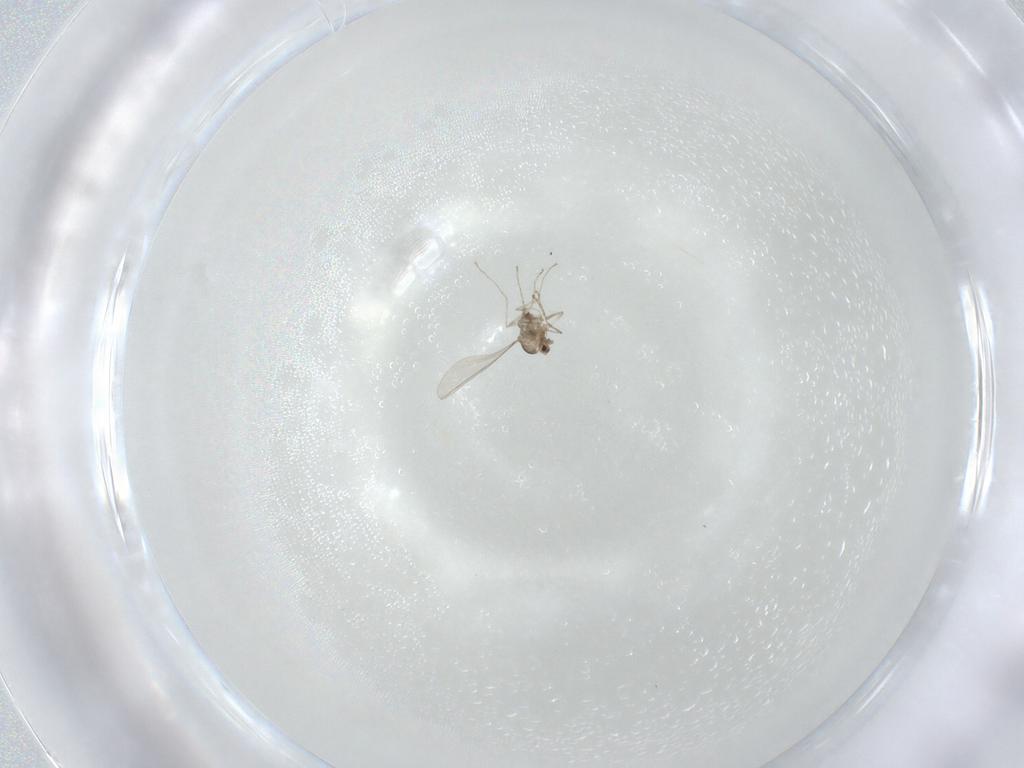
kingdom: Animalia
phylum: Arthropoda
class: Insecta
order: Diptera
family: Cecidomyiidae
